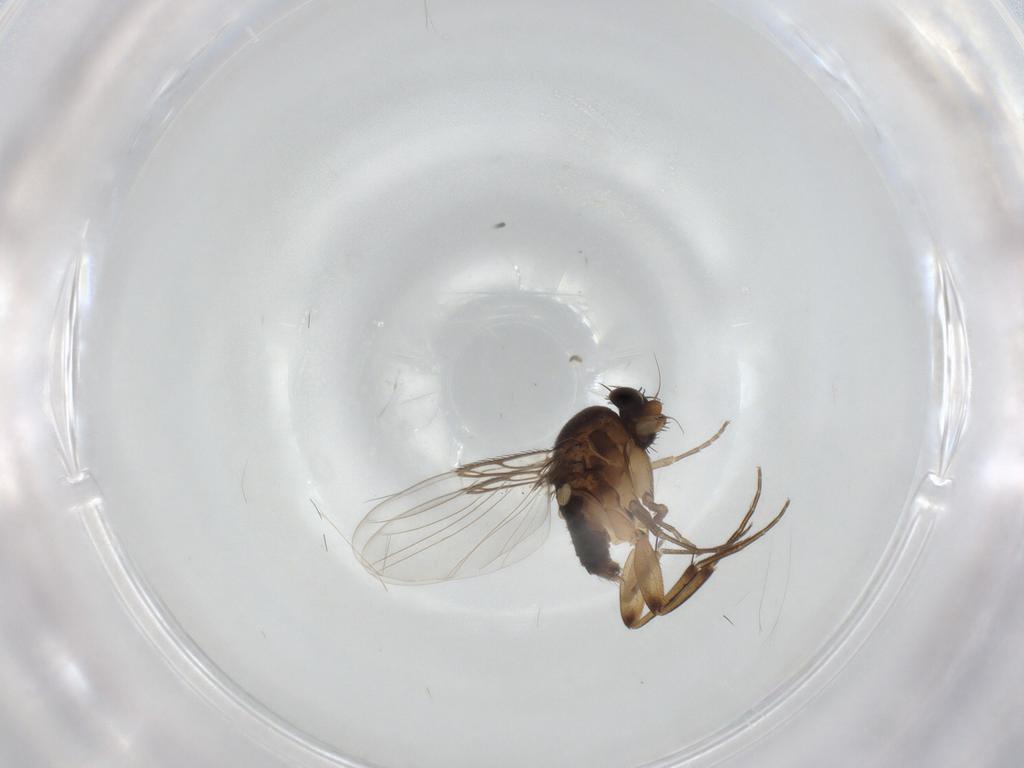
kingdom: Animalia
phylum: Arthropoda
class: Insecta
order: Diptera
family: Phoridae
